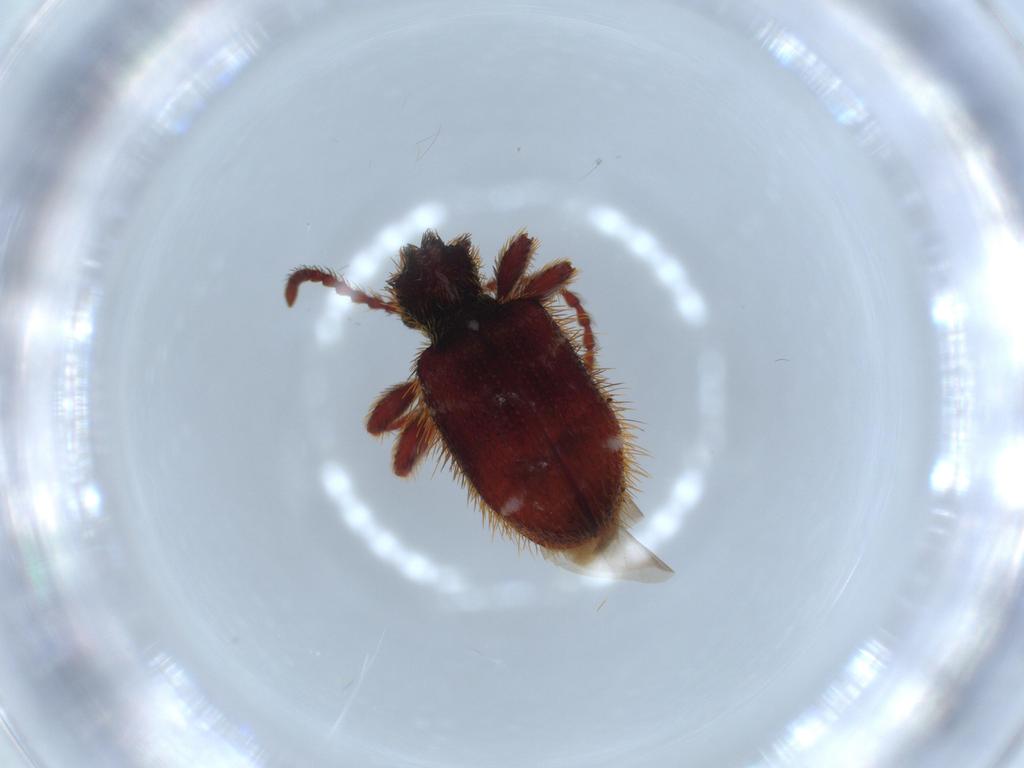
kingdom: Animalia
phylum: Arthropoda
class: Insecta
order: Coleoptera
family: Ptinidae
